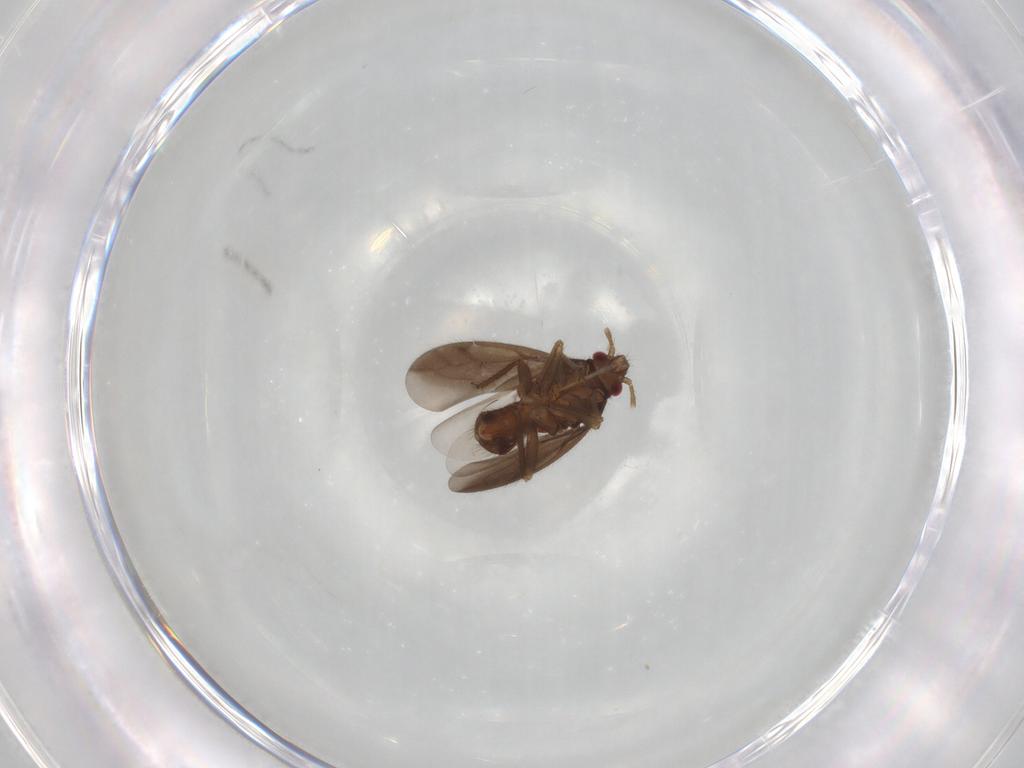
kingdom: Animalia
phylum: Arthropoda
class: Insecta
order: Hemiptera
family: Ceratocombidae
